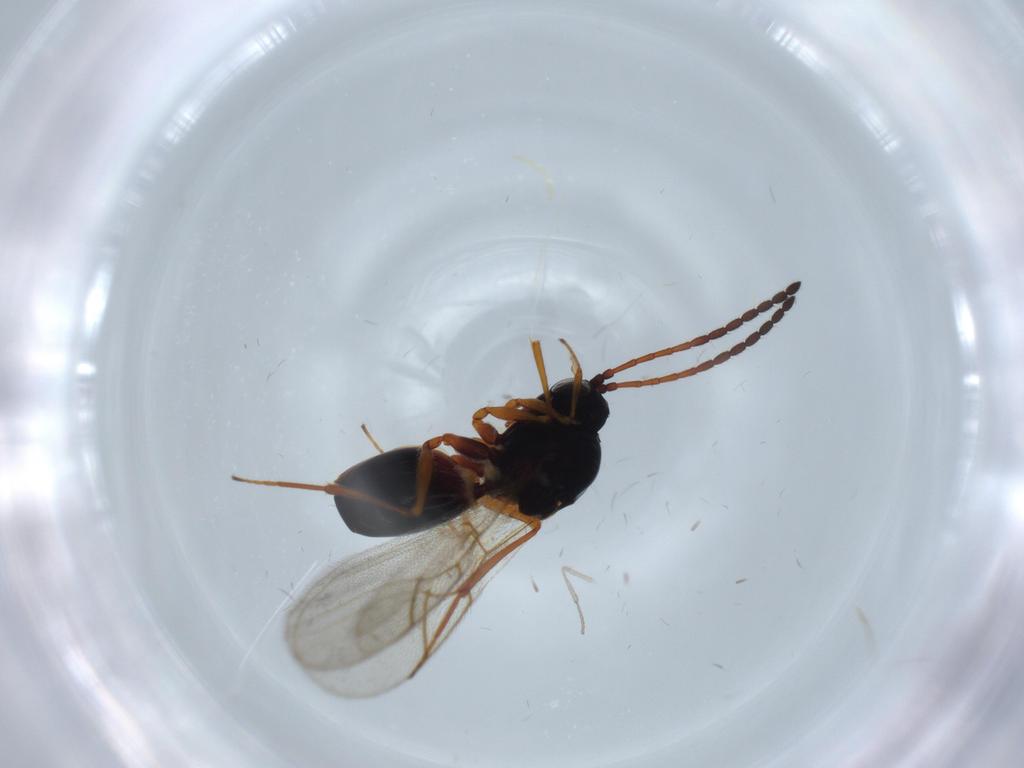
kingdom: Animalia
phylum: Arthropoda
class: Insecta
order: Hymenoptera
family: Figitidae
